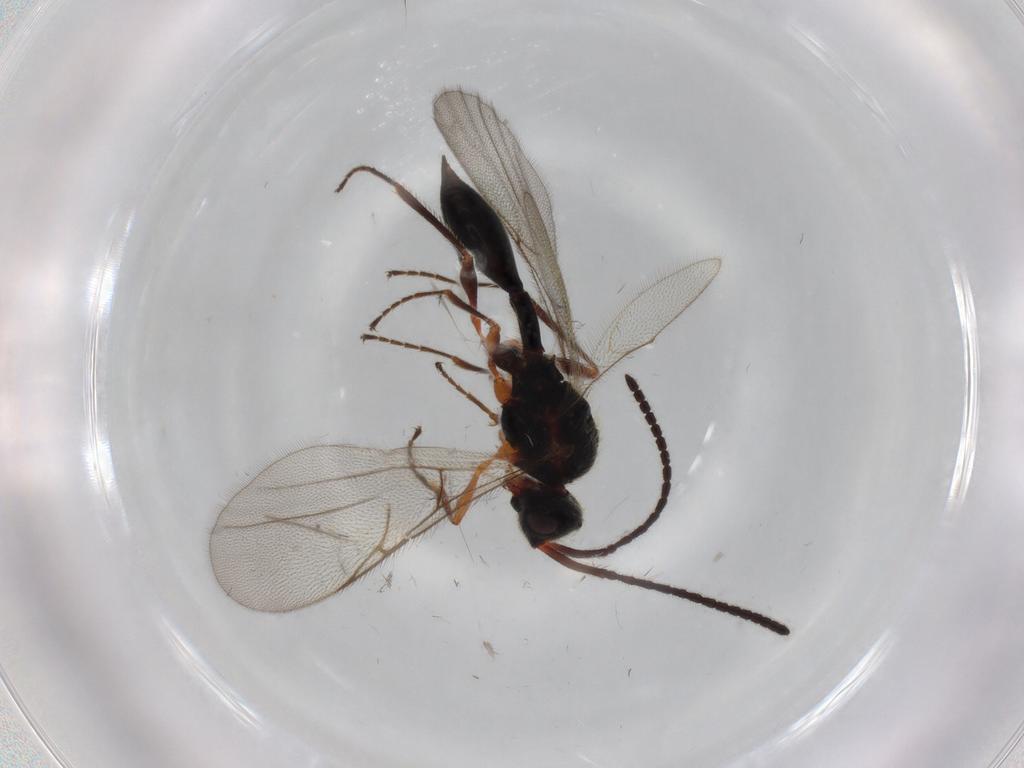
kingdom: Animalia
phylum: Arthropoda
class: Insecta
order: Hymenoptera
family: Diapriidae
